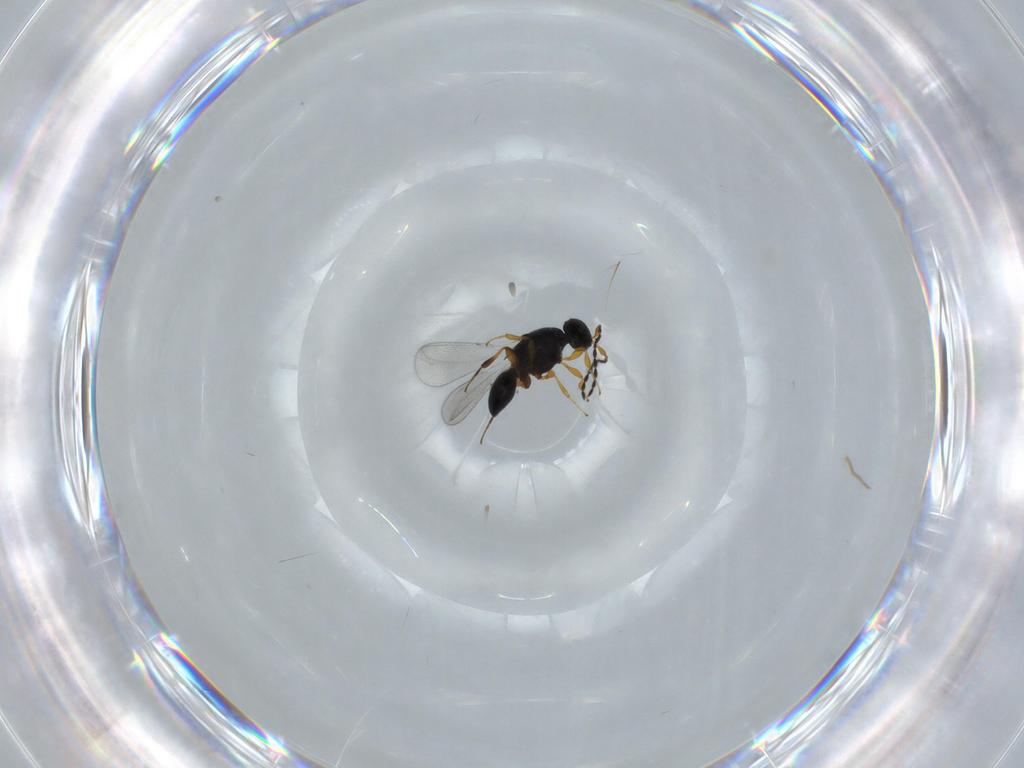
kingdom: Animalia
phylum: Arthropoda
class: Insecta
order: Hymenoptera
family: Platygastridae
